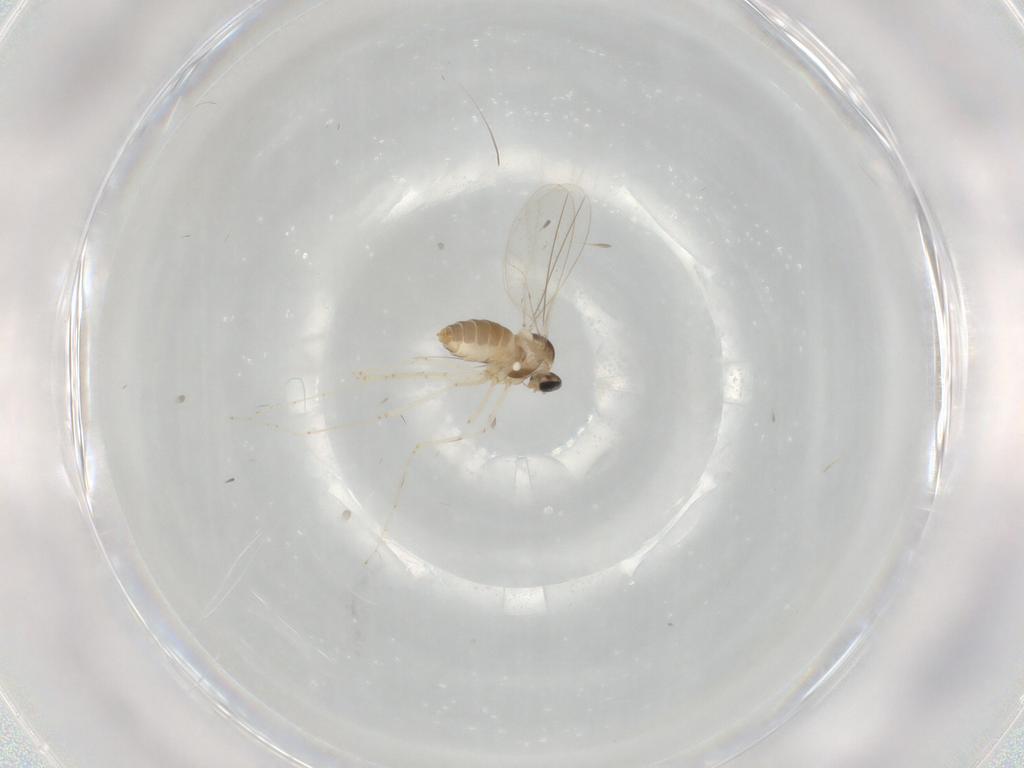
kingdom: Animalia
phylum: Arthropoda
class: Insecta
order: Diptera
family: Cecidomyiidae
